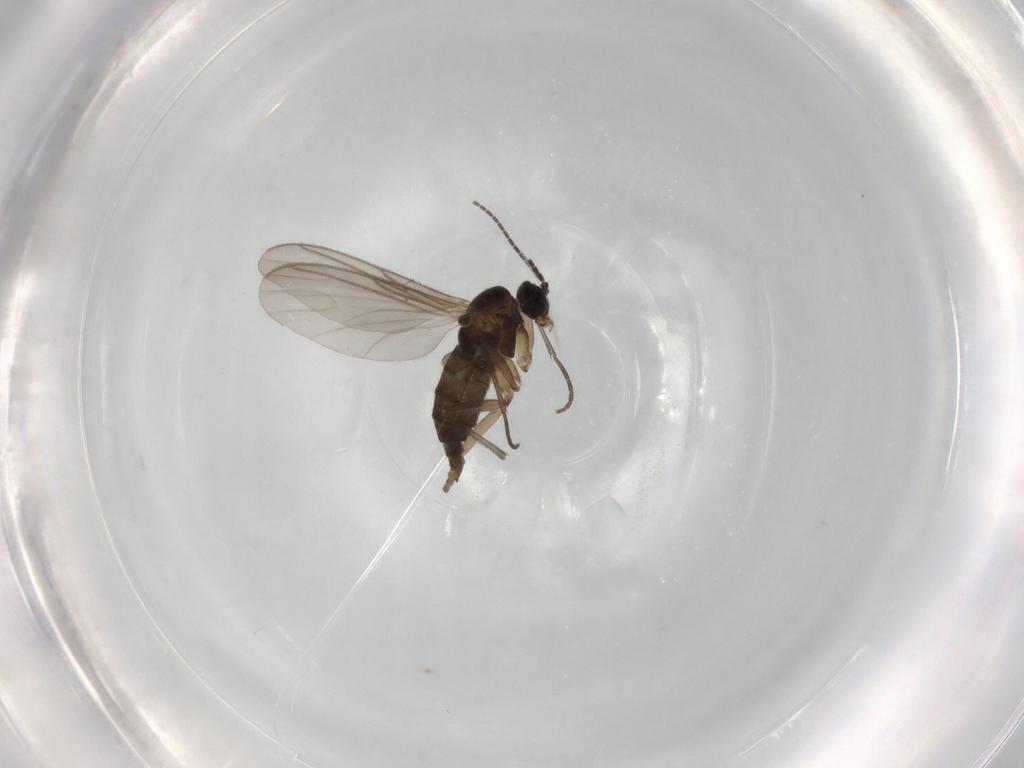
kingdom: Animalia
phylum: Arthropoda
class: Insecta
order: Diptera
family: Sciaridae
